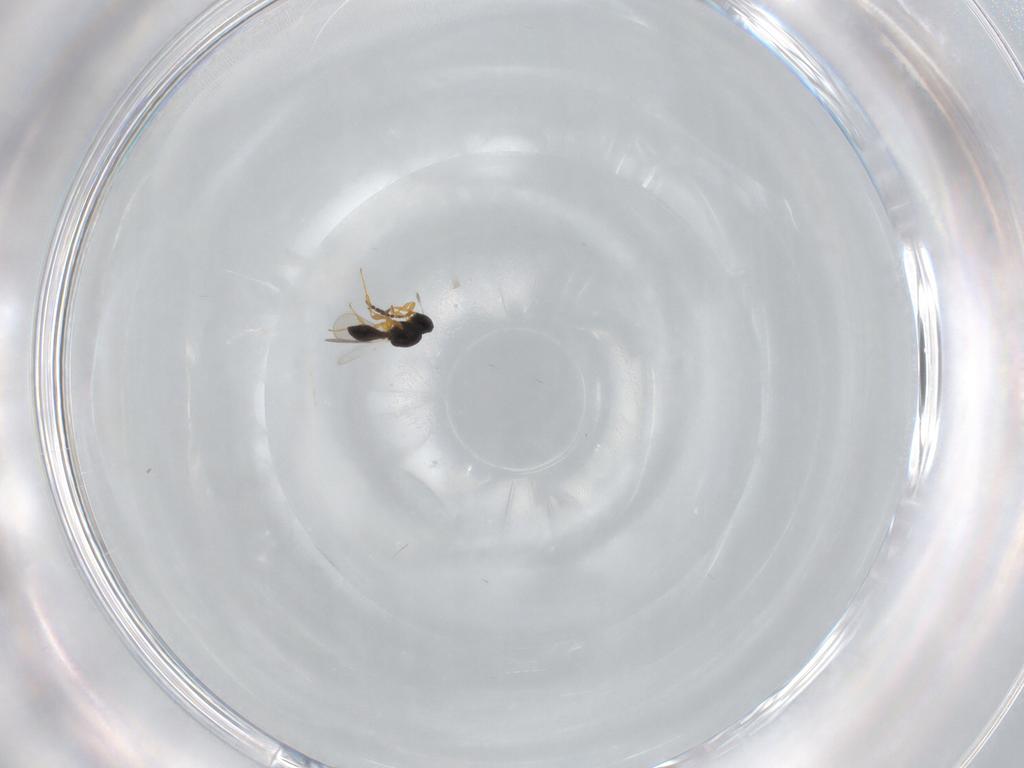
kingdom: Animalia
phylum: Arthropoda
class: Insecta
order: Hymenoptera
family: Platygastridae
